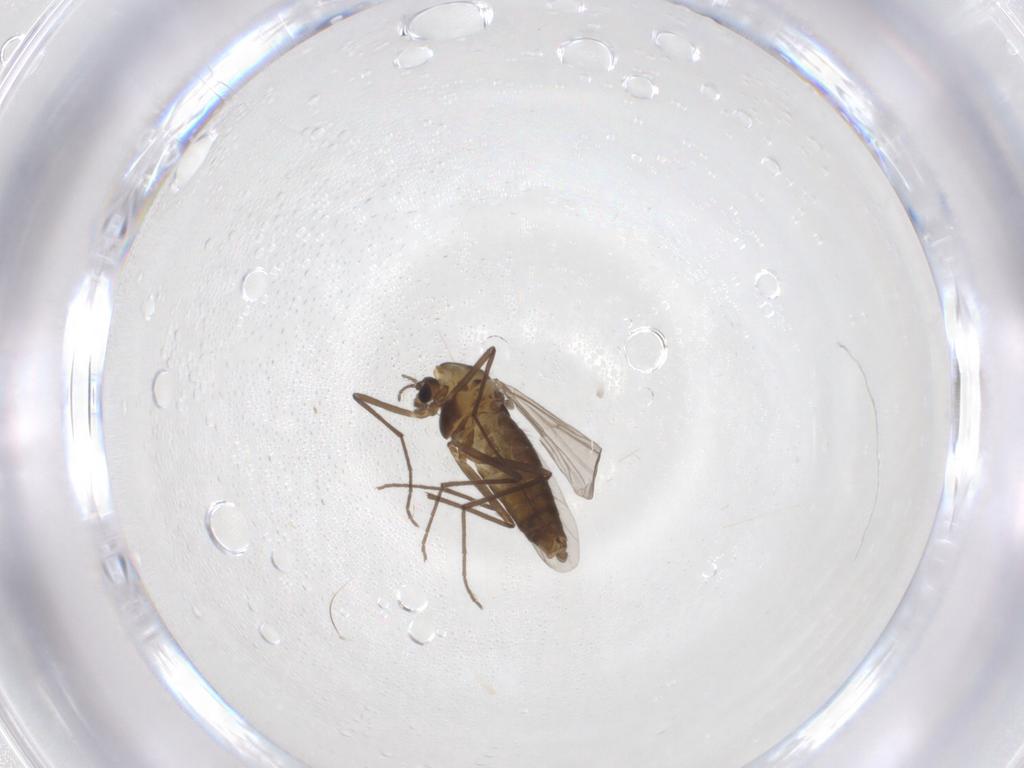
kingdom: Animalia
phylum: Arthropoda
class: Insecta
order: Diptera
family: Chironomidae
